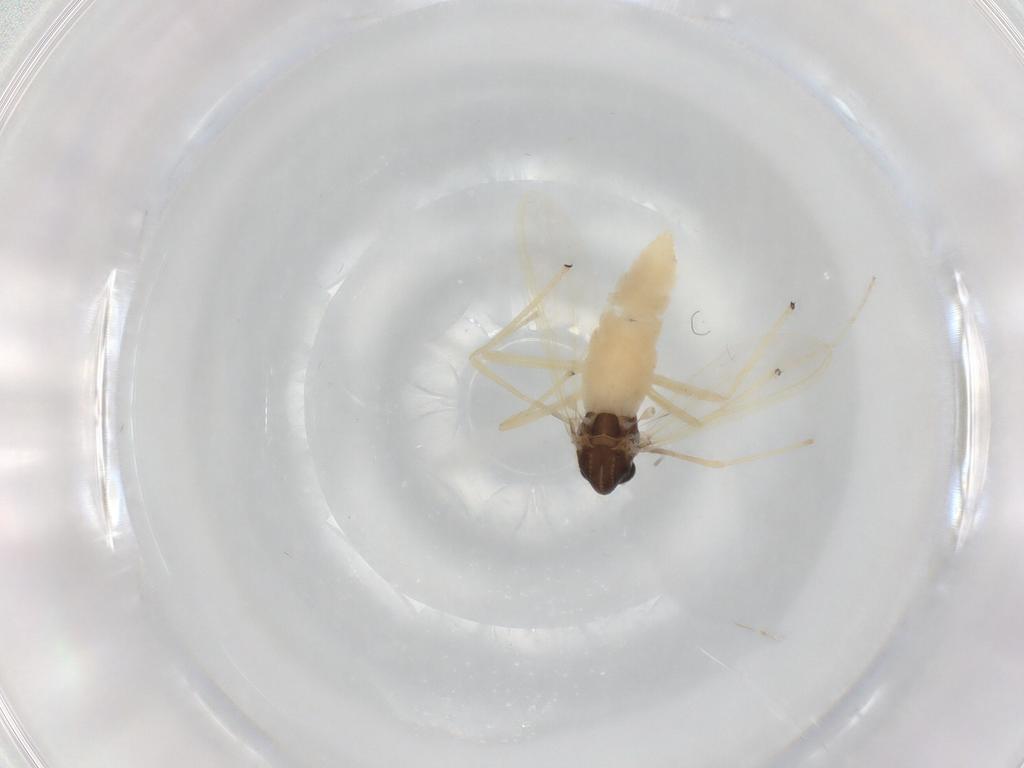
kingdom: Animalia
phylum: Arthropoda
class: Insecta
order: Diptera
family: Chironomidae
